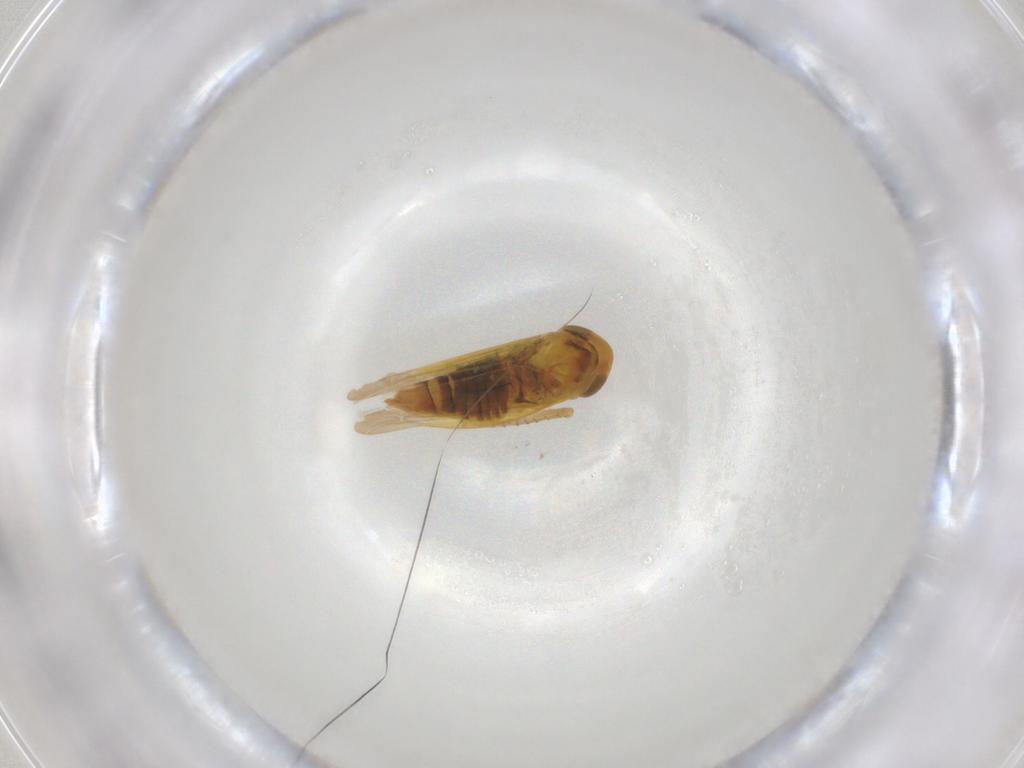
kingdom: Animalia
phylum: Arthropoda
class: Insecta
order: Hemiptera
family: Cicadellidae
